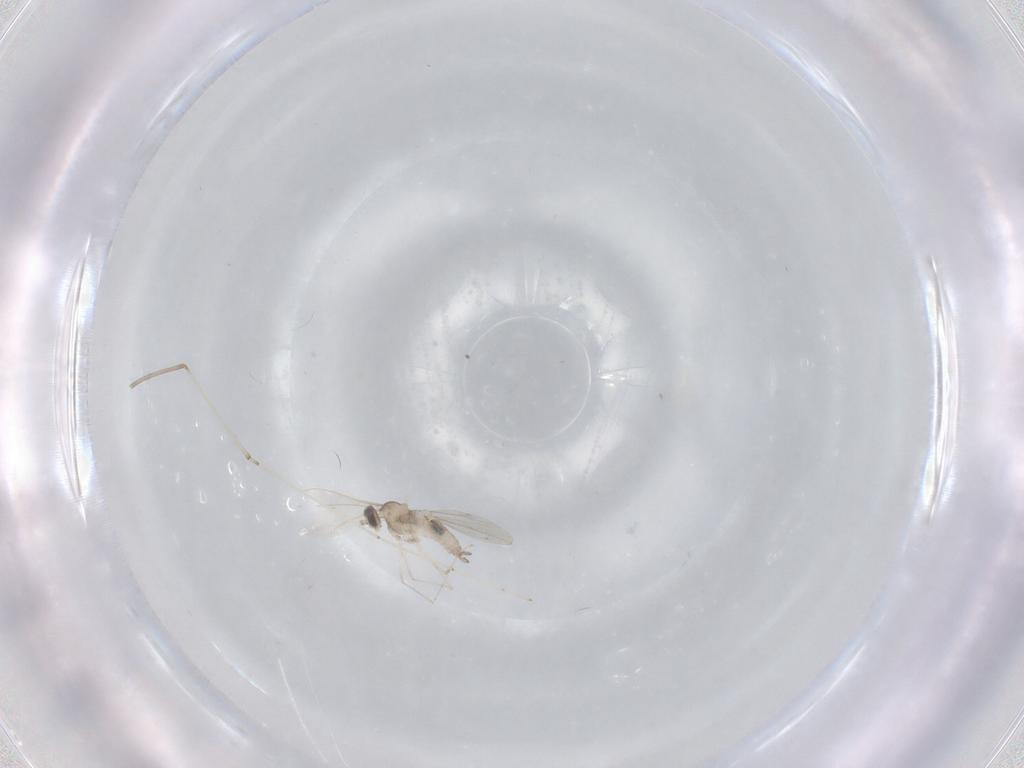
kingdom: Animalia
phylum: Arthropoda
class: Insecta
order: Diptera
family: Cecidomyiidae
